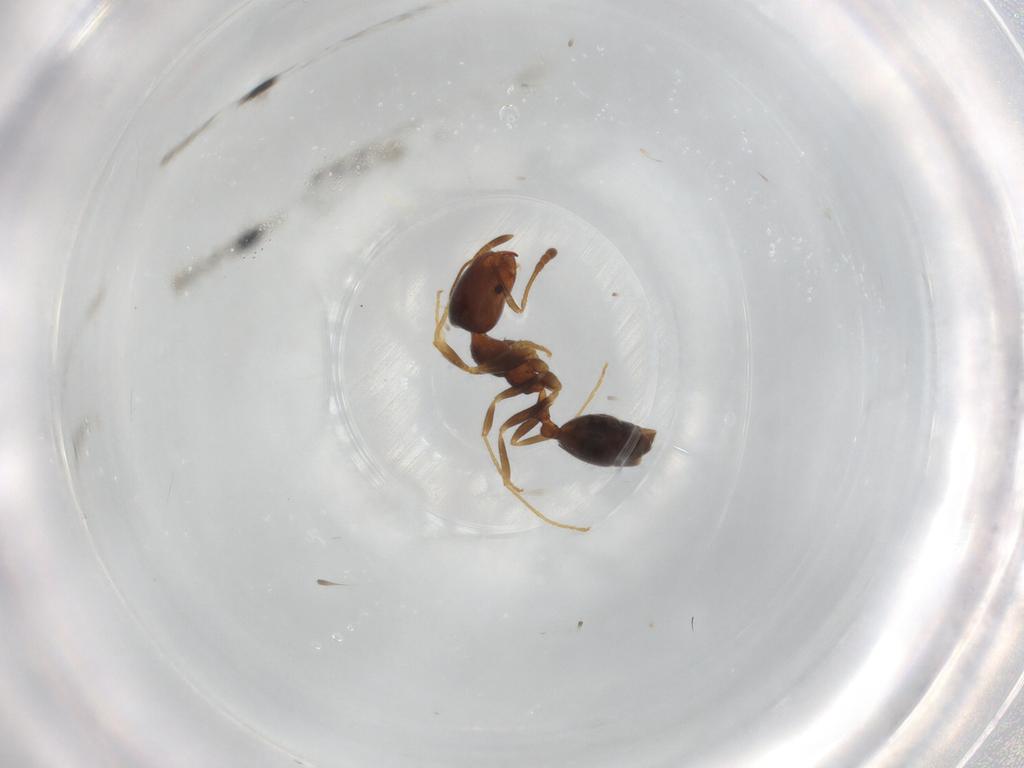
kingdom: Animalia
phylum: Arthropoda
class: Insecta
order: Hymenoptera
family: Formicidae
